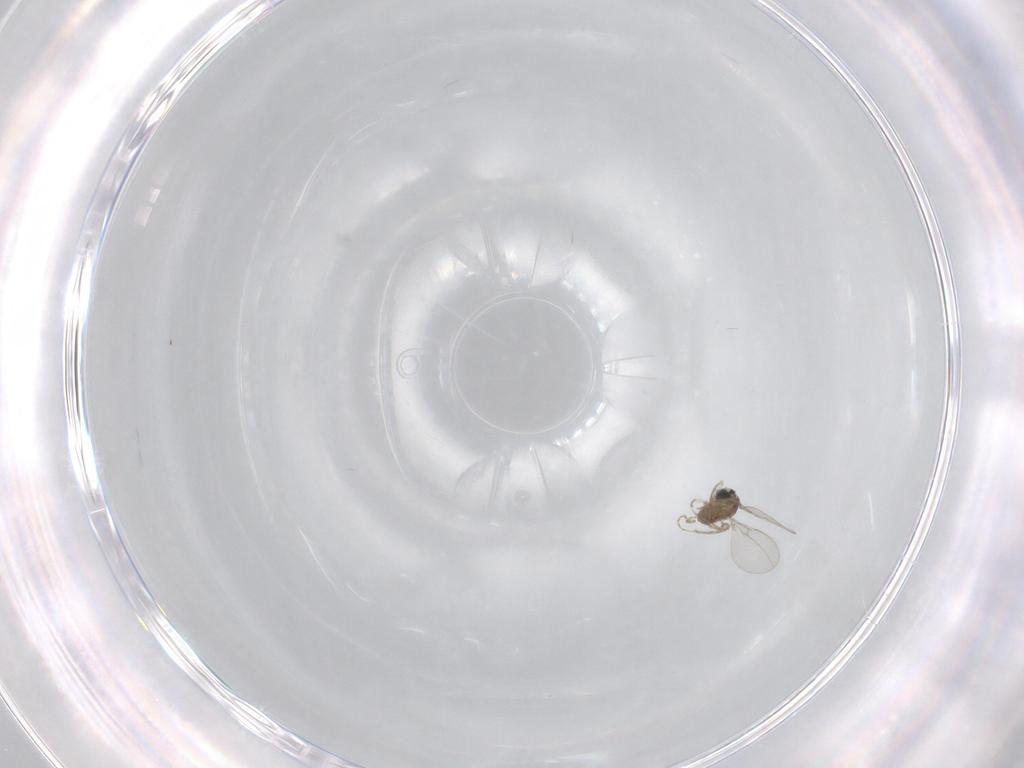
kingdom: Animalia
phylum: Arthropoda
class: Insecta
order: Diptera
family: Cecidomyiidae
